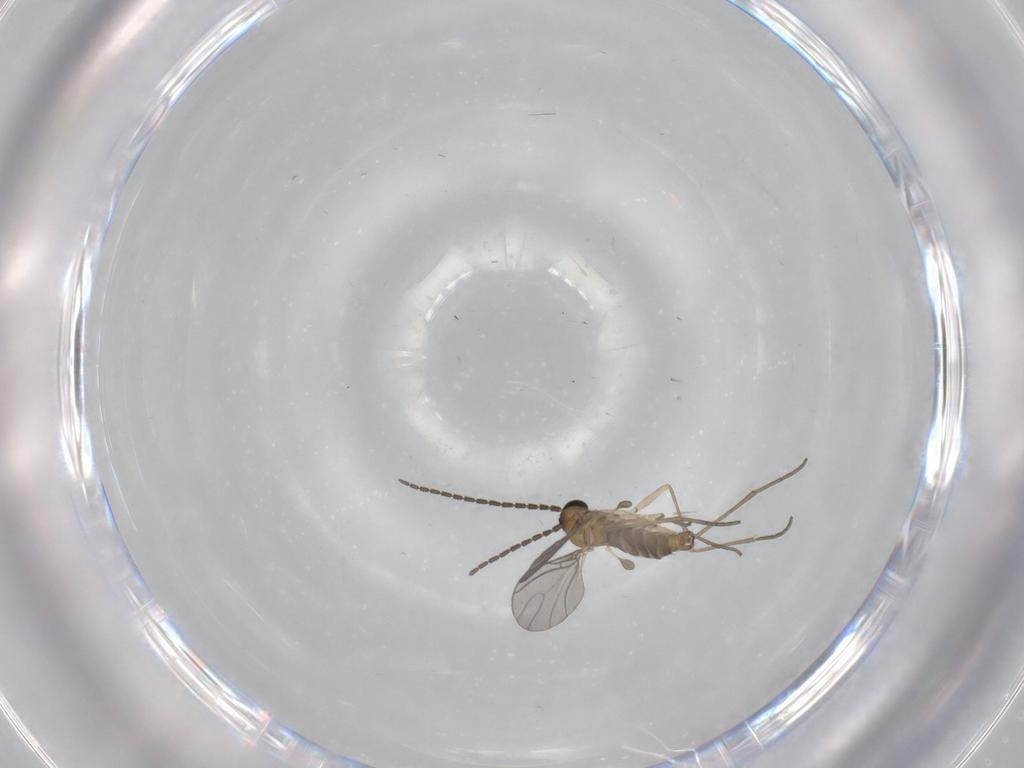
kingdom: Animalia
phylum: Arthropoda
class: Insecta
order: Diptera
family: Sciaridae
